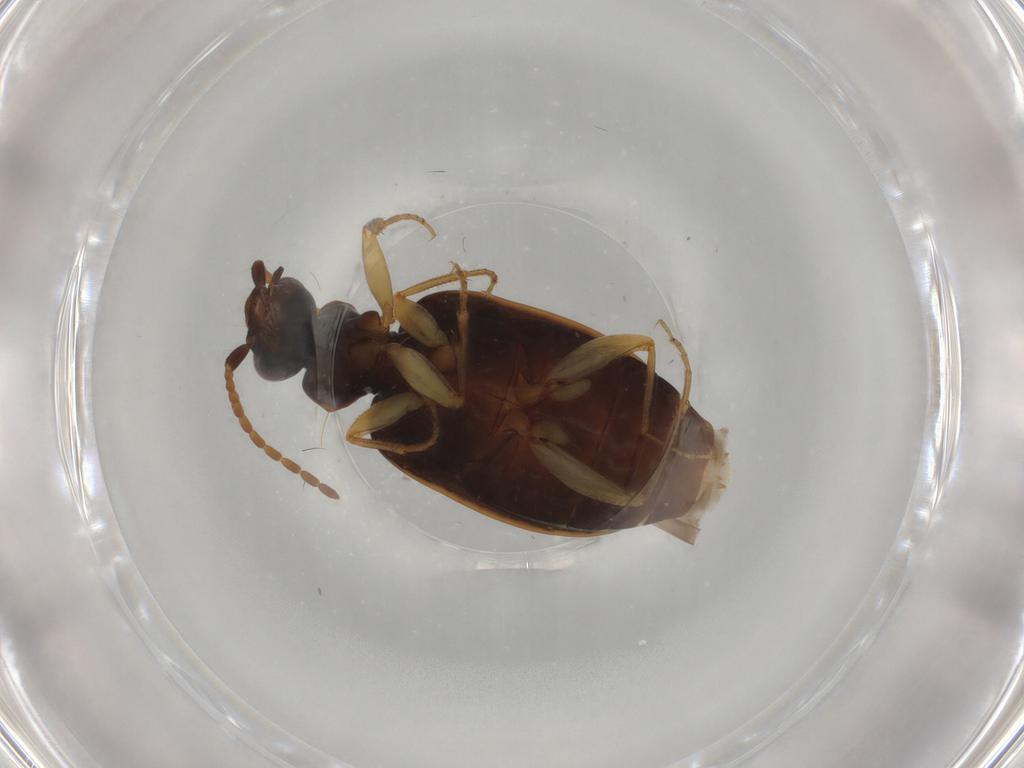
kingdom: Animalia
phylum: Arthropoda
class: Insecta
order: Coleoptera
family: Carabidae
